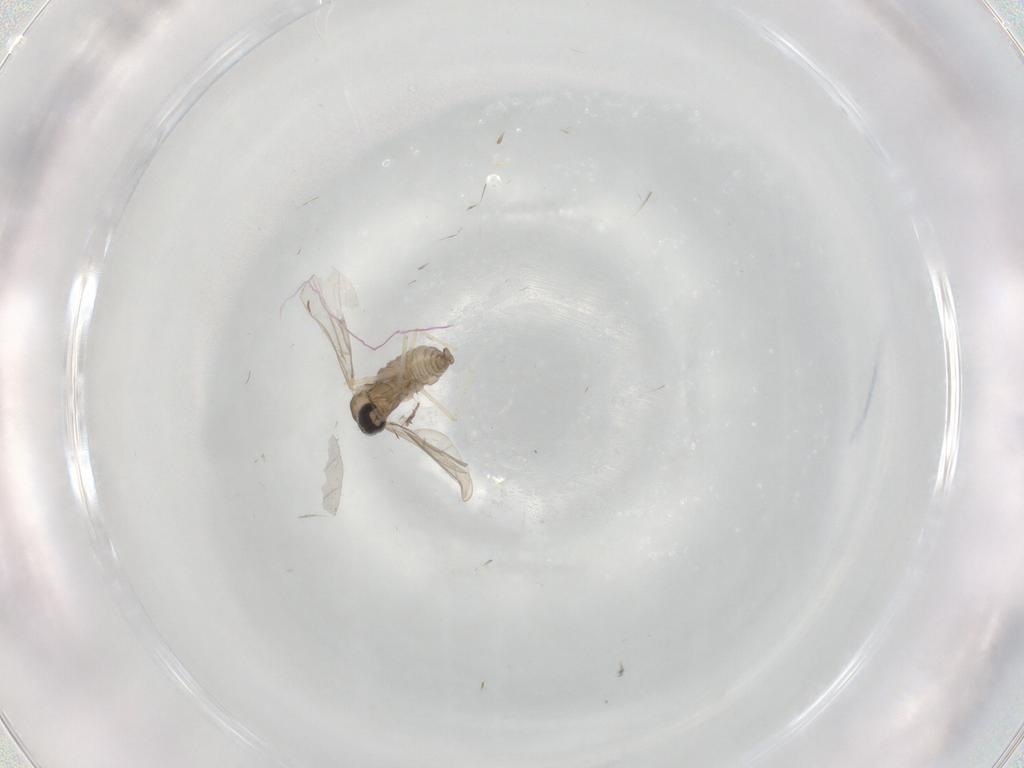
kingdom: Animalia
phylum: Arthropoda
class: Insecta
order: Diptera
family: Cecidomyiidae
